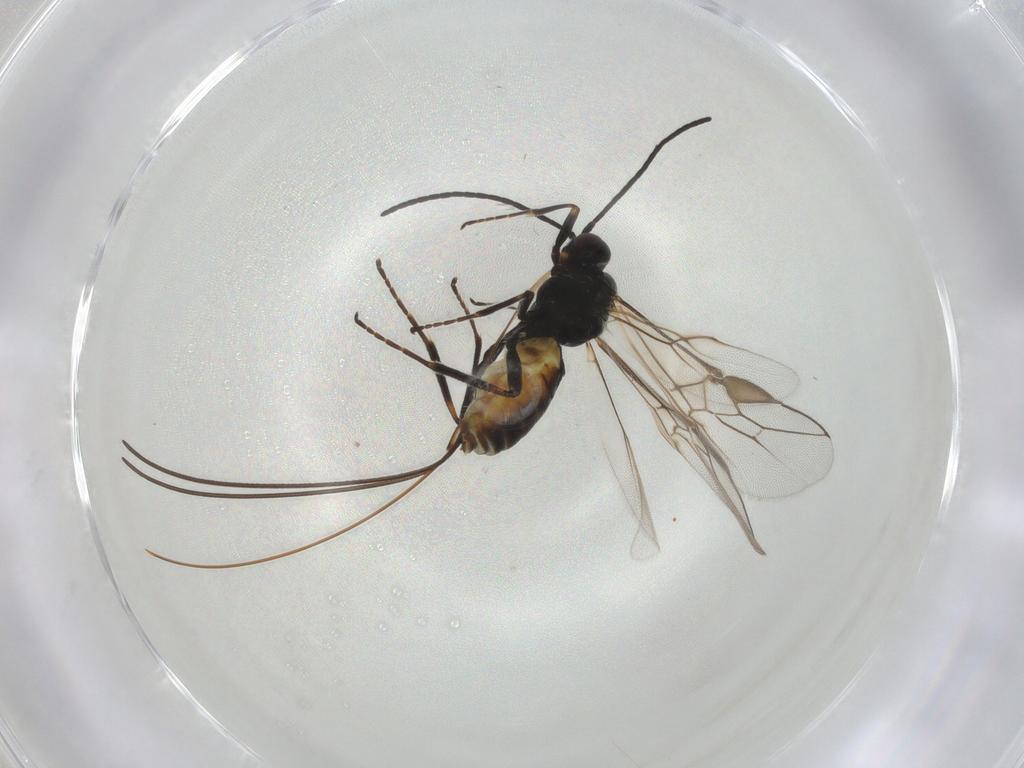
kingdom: Animalia
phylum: Arthropoda
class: Insecta
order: Hymenoptera
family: Braconidae
